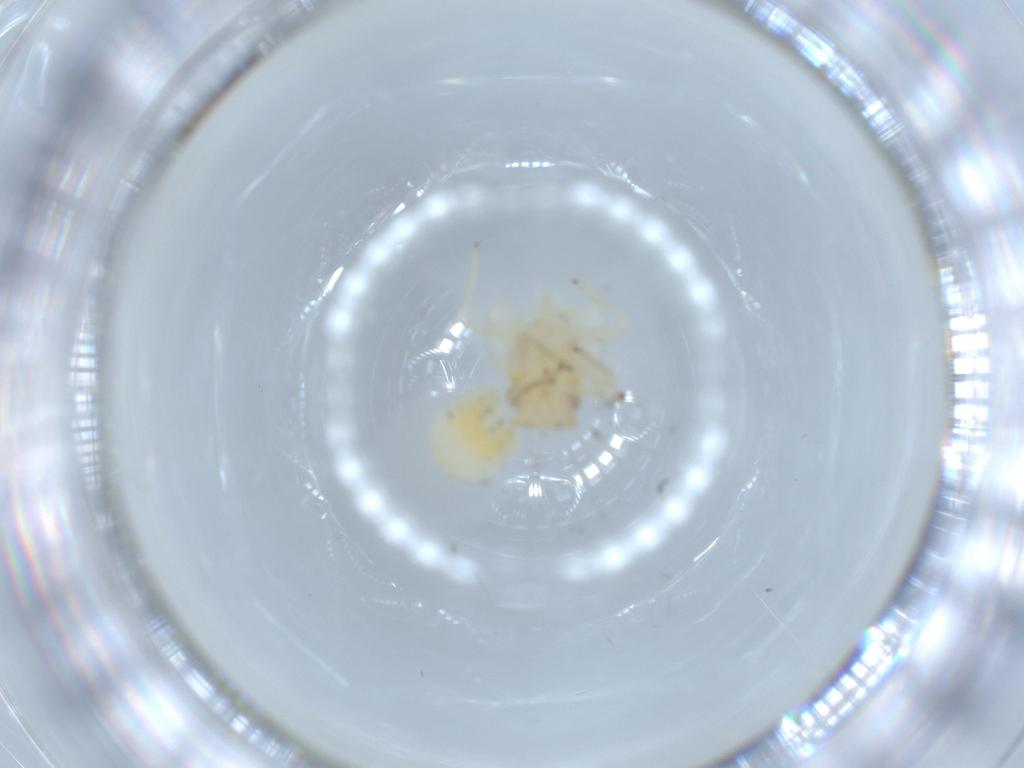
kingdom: Animalia
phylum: Arthropoda
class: Insecta
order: Hemiptera
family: Psyllidae
